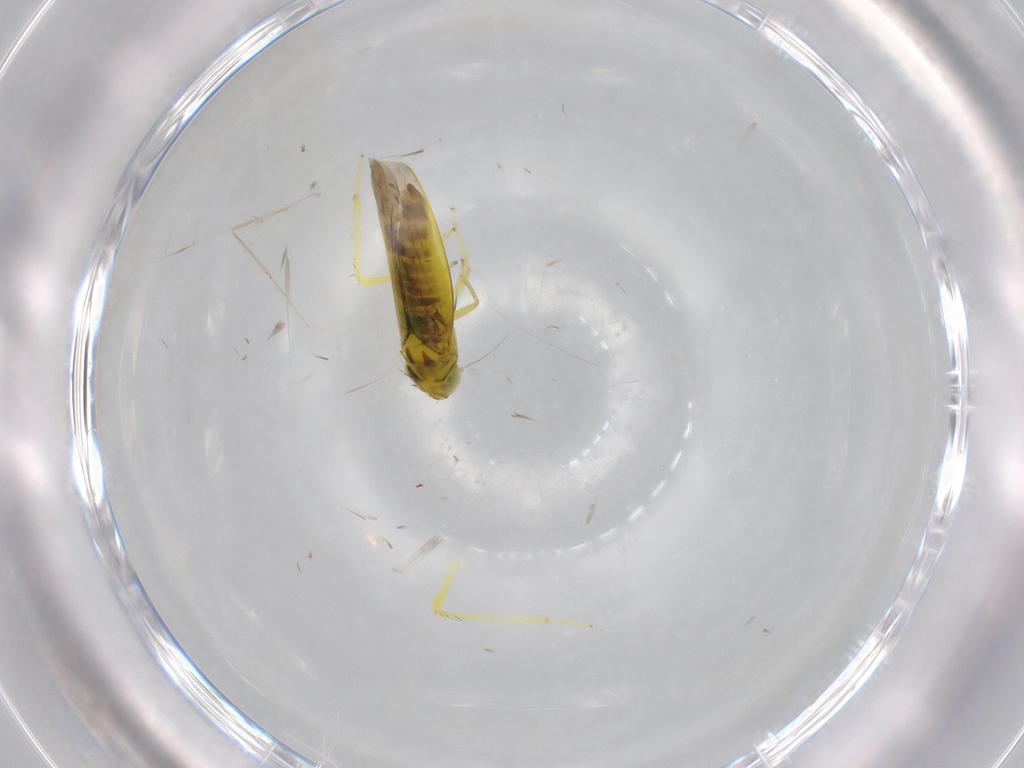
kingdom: Animalia
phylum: Arthropoda
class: Insecta
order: Hemiptera
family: Cicadellidae
